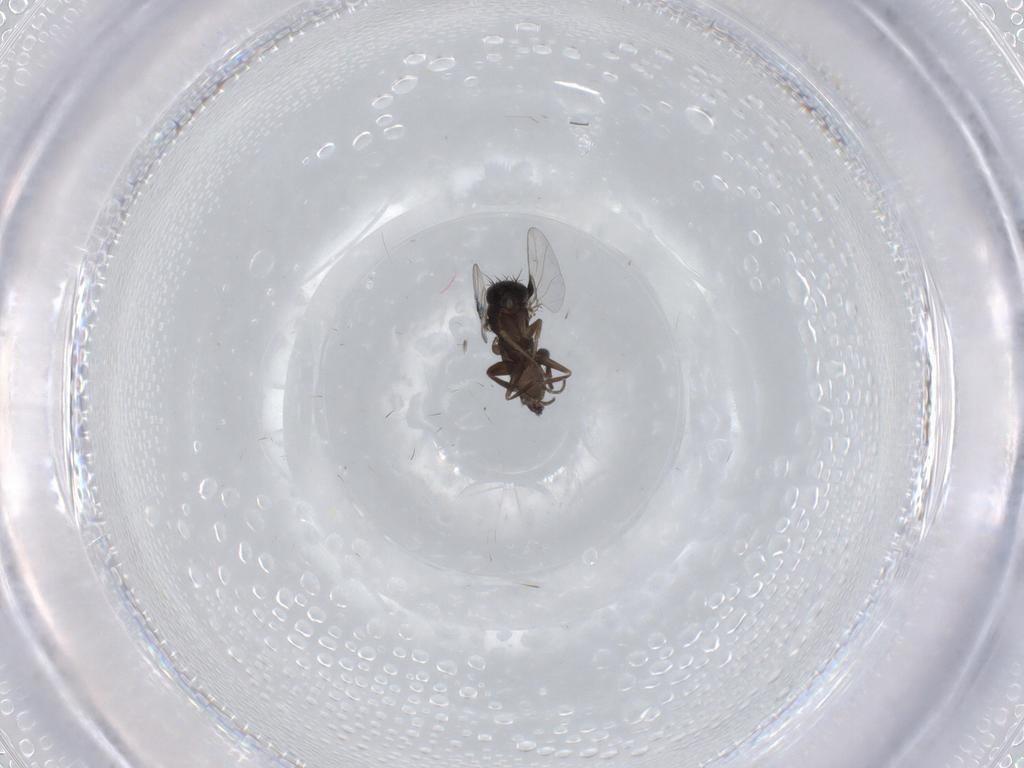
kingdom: Animalia
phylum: Arthropoda
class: Insecta
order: Diptera
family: Phoridae
